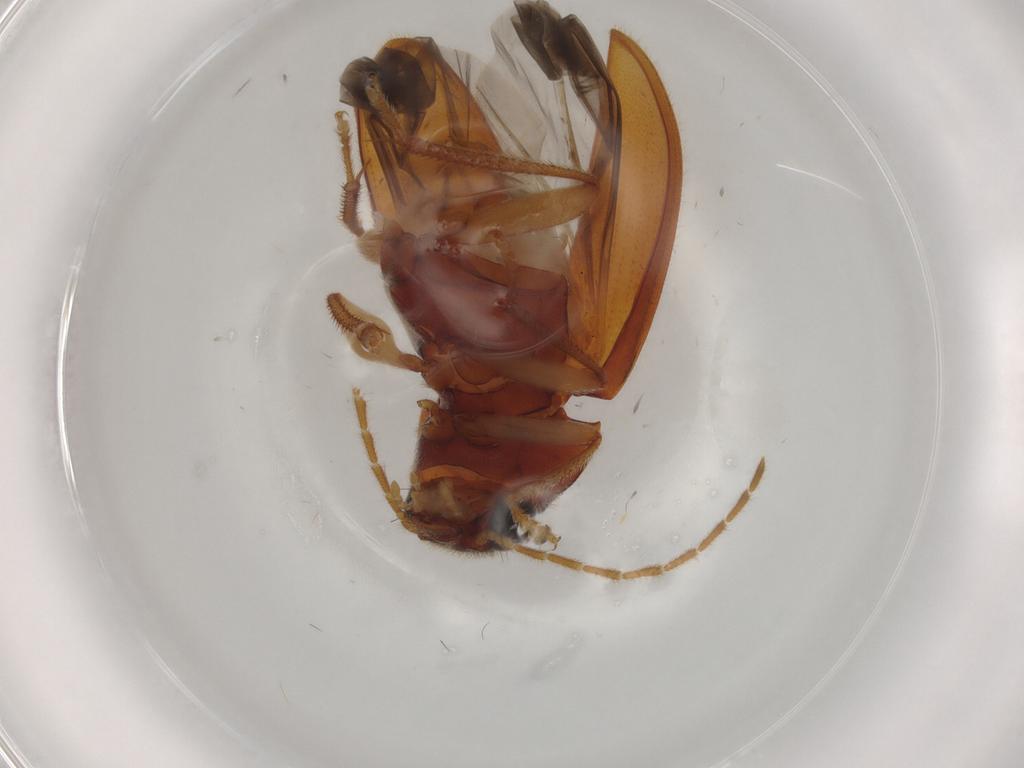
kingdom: Animalia
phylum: Arthropoda
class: Insecta
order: Coleoptera
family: Ptilodactylidae
